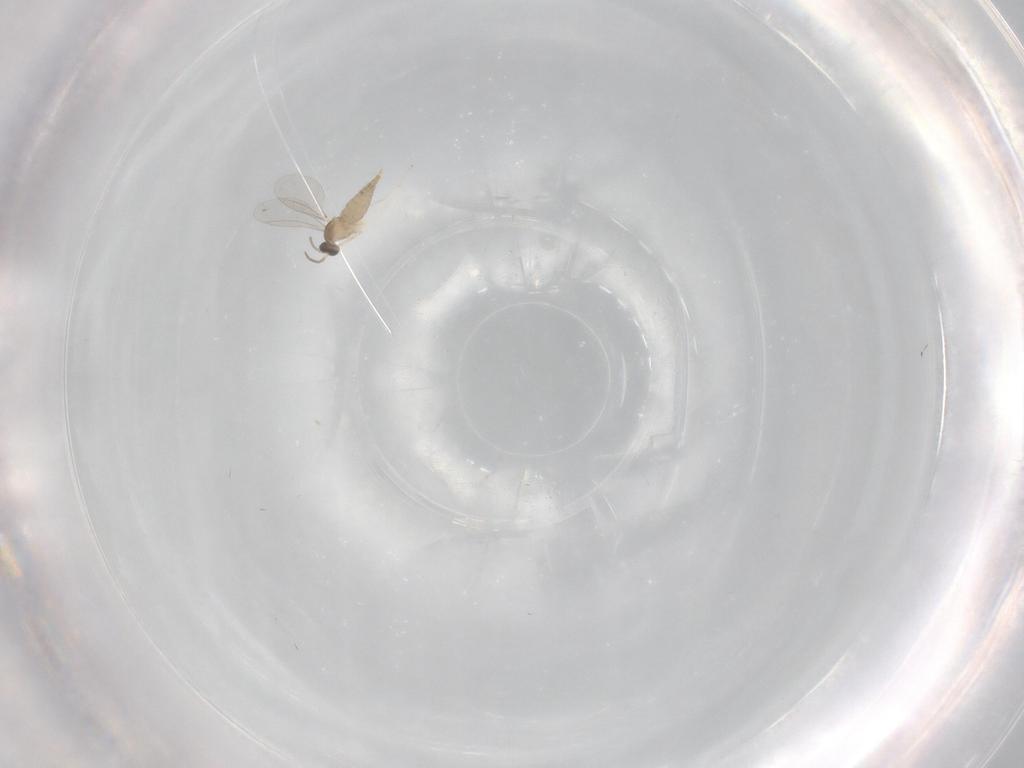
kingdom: Animalia
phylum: Arthropoda
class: Insecta
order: Diptera
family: Cecidomyiidae
